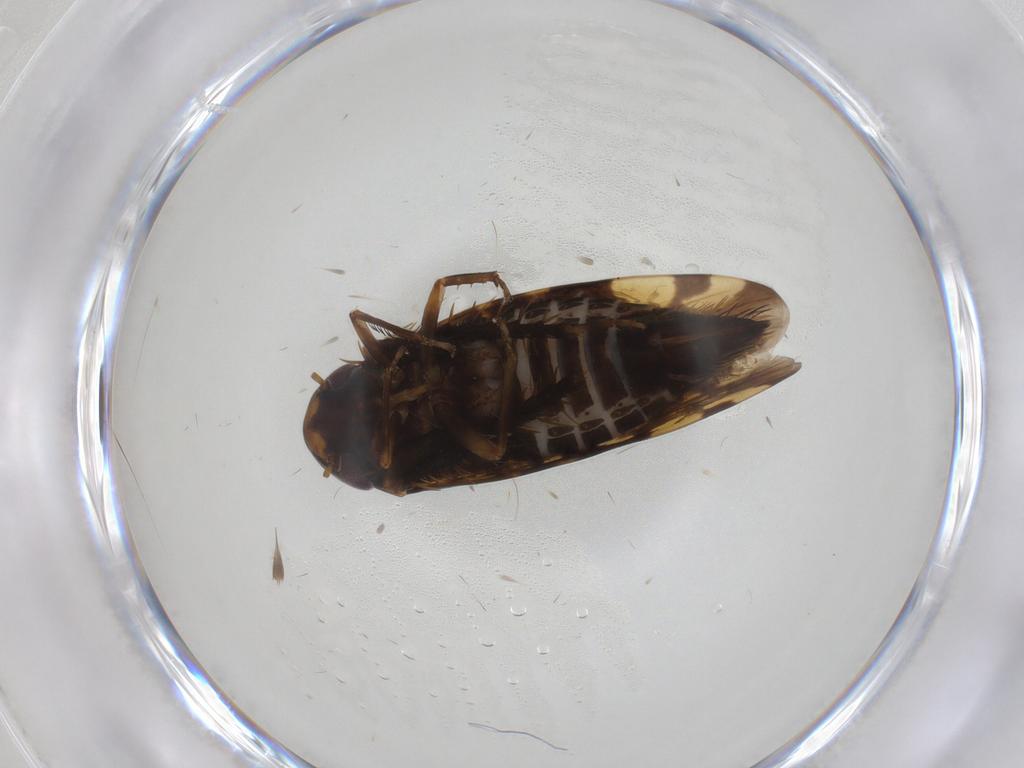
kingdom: Animalia
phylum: Arthropoda
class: Insecta
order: Hemiptera
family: Cicadellidae
